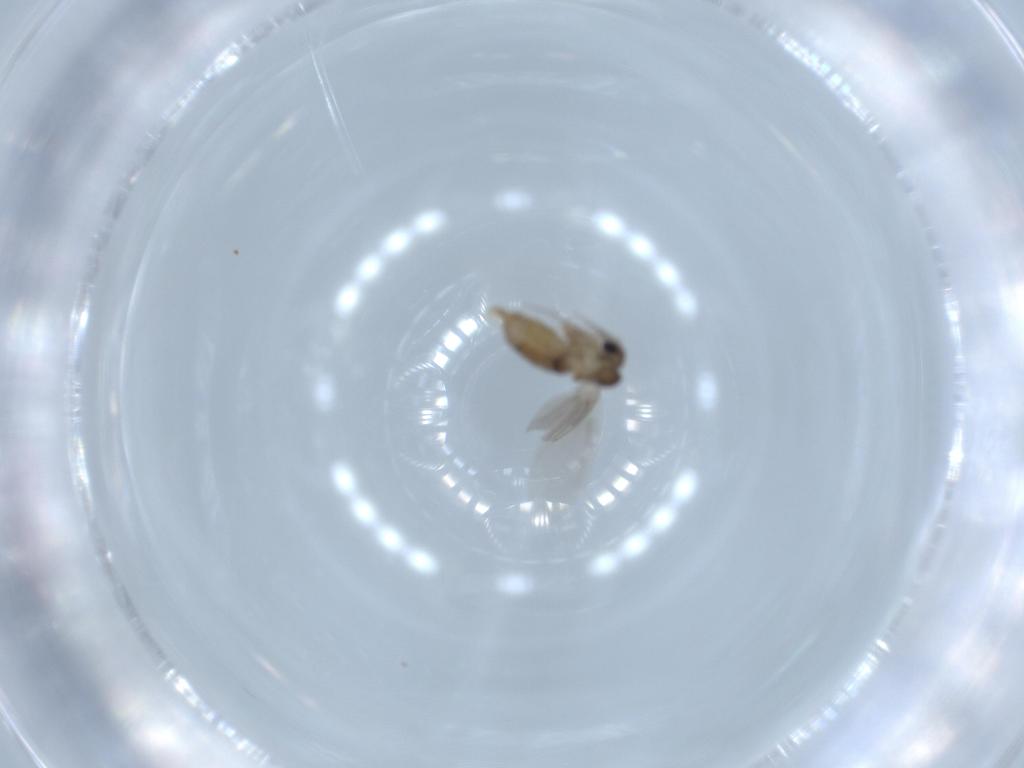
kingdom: Animalia
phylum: Arthropoda
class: Insecta
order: Diptera
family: Psychodidae
